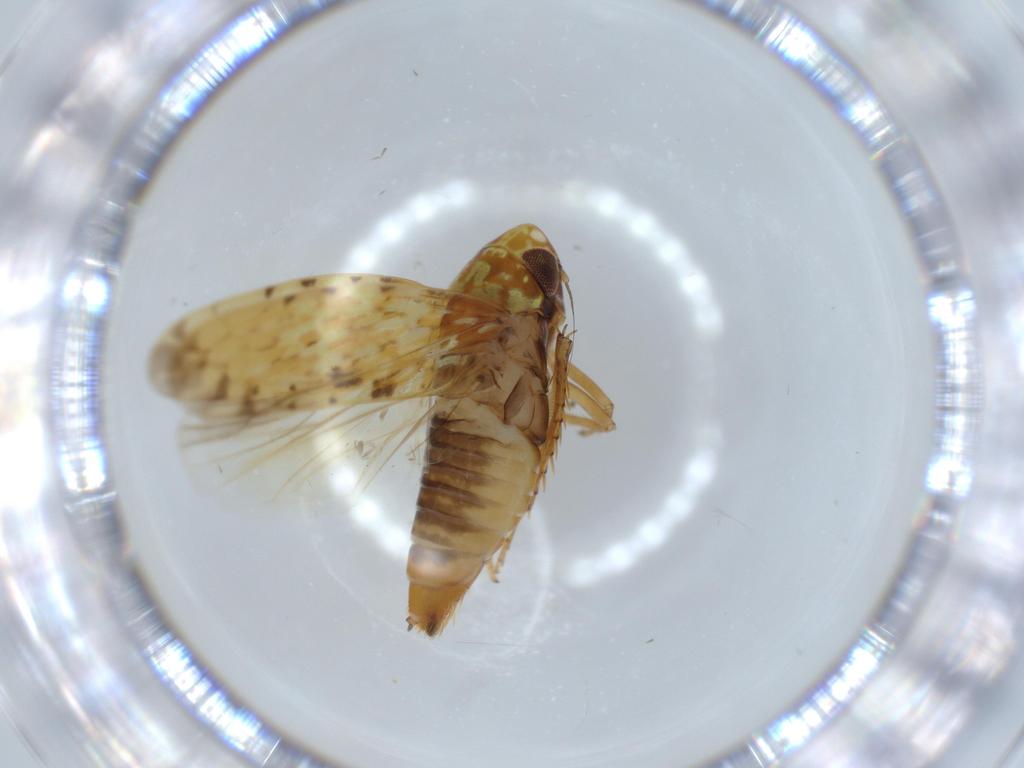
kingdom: Animalia
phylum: Arthropoda
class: Insecta
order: Hemiptera
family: Cicadellidae
